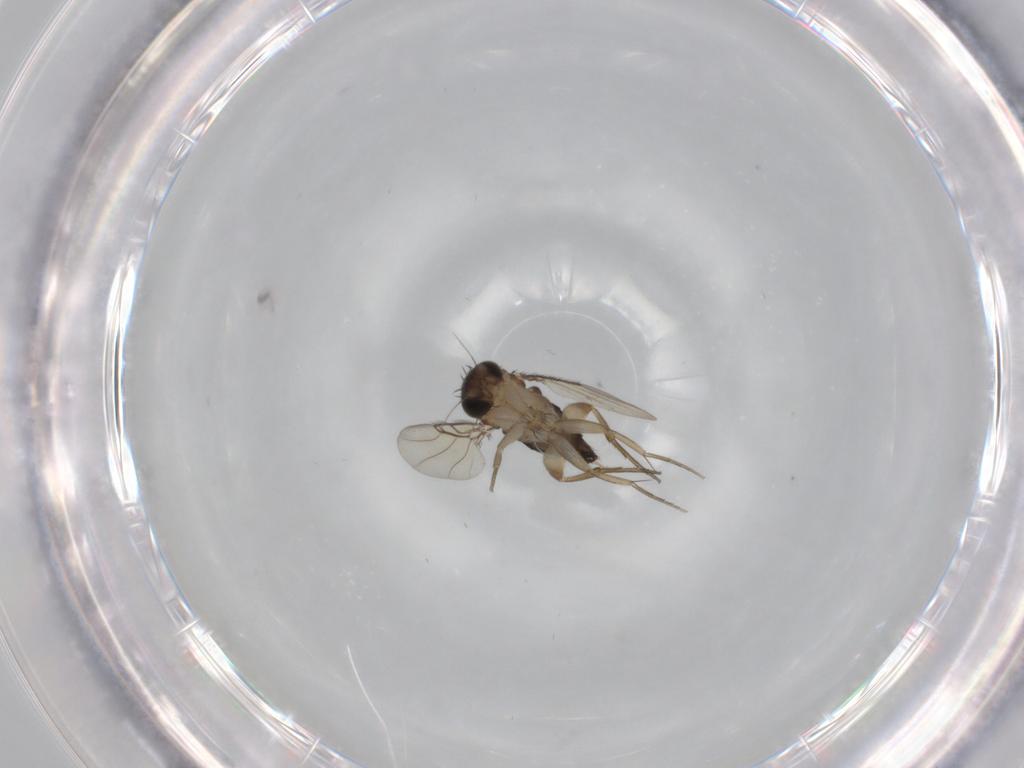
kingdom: Animalia
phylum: Arthropoda
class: Insecta
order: Diptera
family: Phoridae
